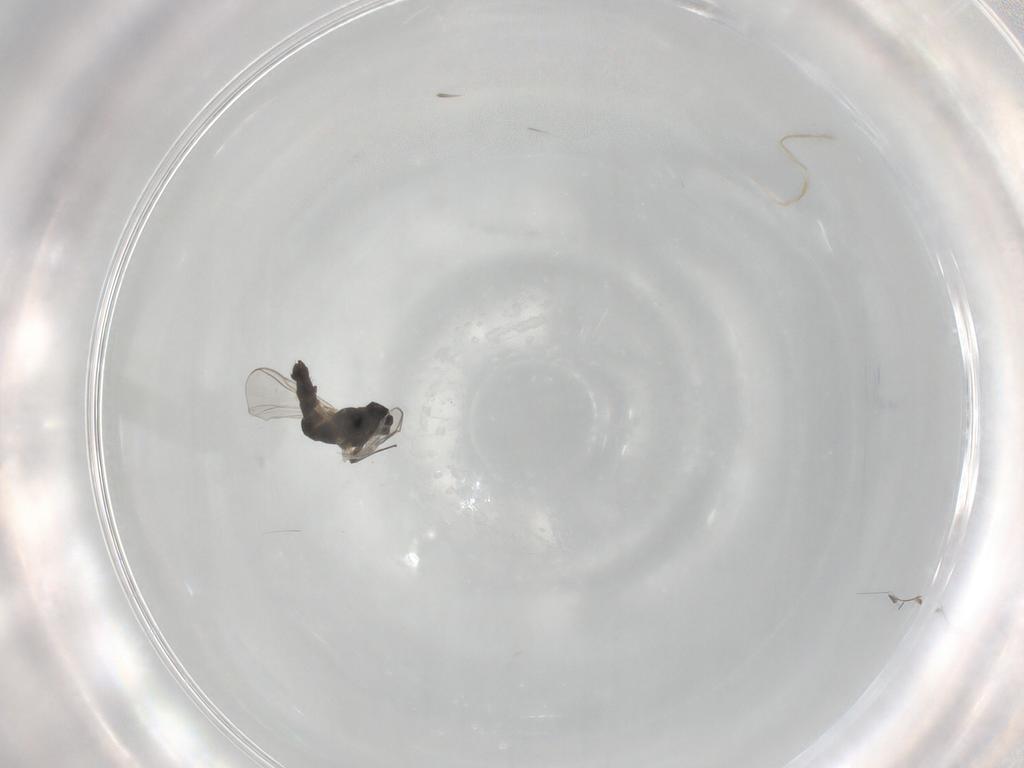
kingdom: Animalia
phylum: Arthropoda
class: Insecta
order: Diptera
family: Chironomidae
